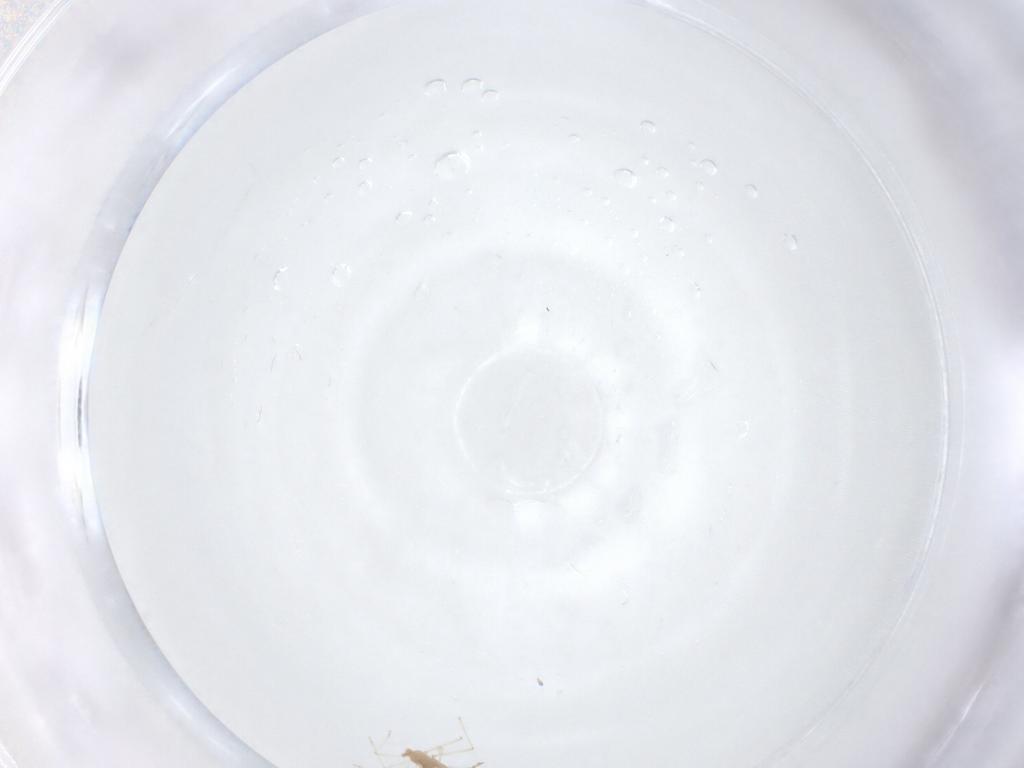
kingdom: Animalia
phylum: Arthropoda
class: Insecta
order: Diptera
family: Cecidomyiidae
